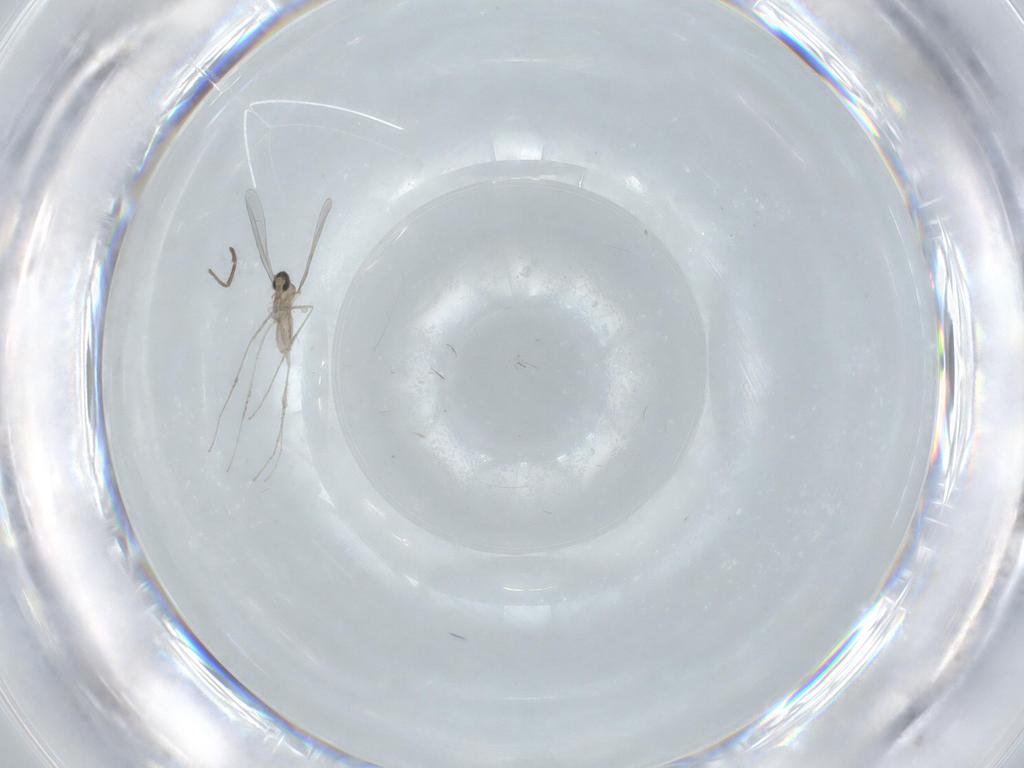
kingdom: Animalia
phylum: Arthropoda
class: Insecta
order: Diptera
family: Cecidomyiidae
